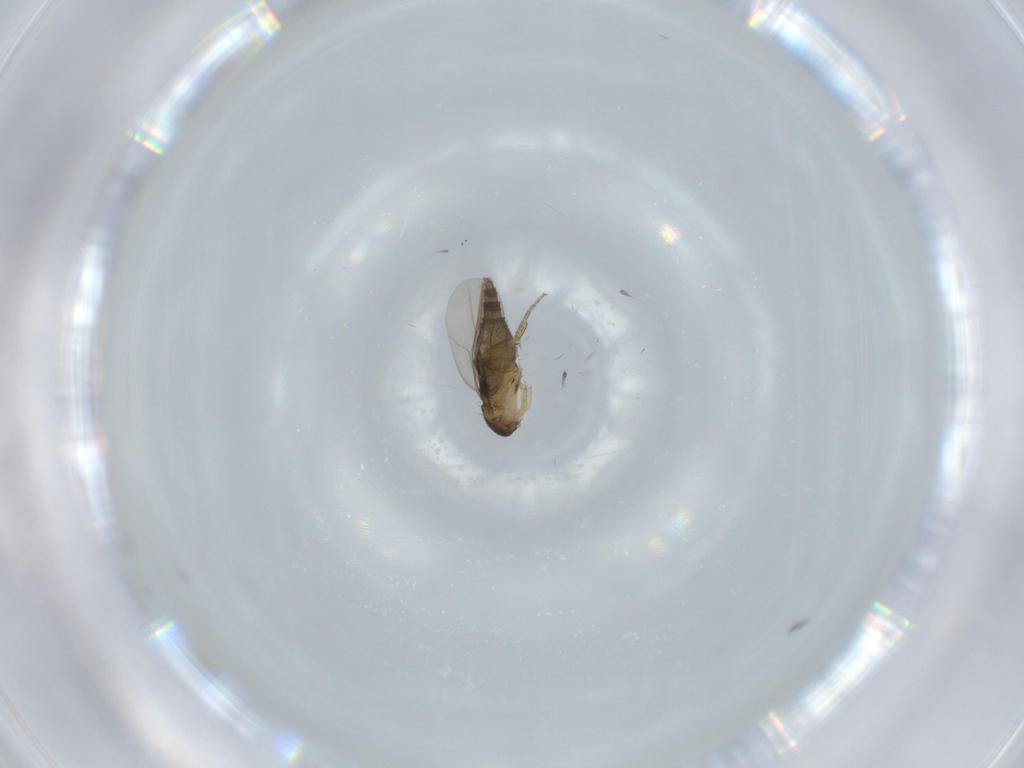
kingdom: Animalia
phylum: Arthropoda
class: Insecta
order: Diptera
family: Phoridae
